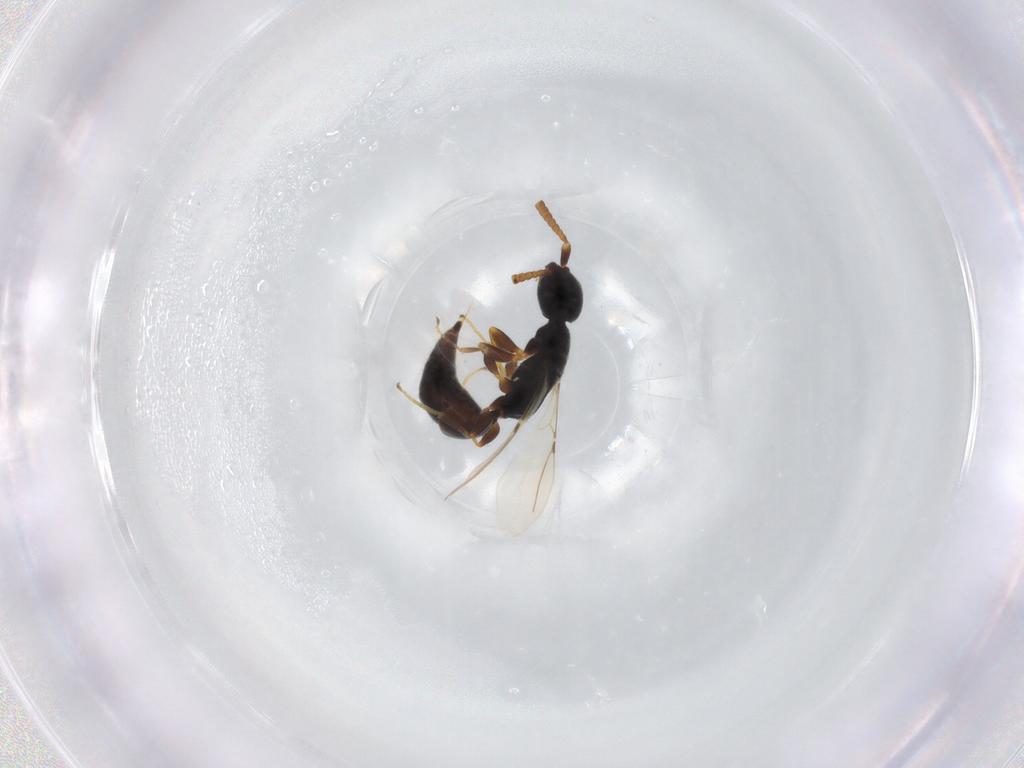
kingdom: Animalia
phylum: Arthropoda
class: Insecta
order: Hymenoptera
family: Bethylidae
